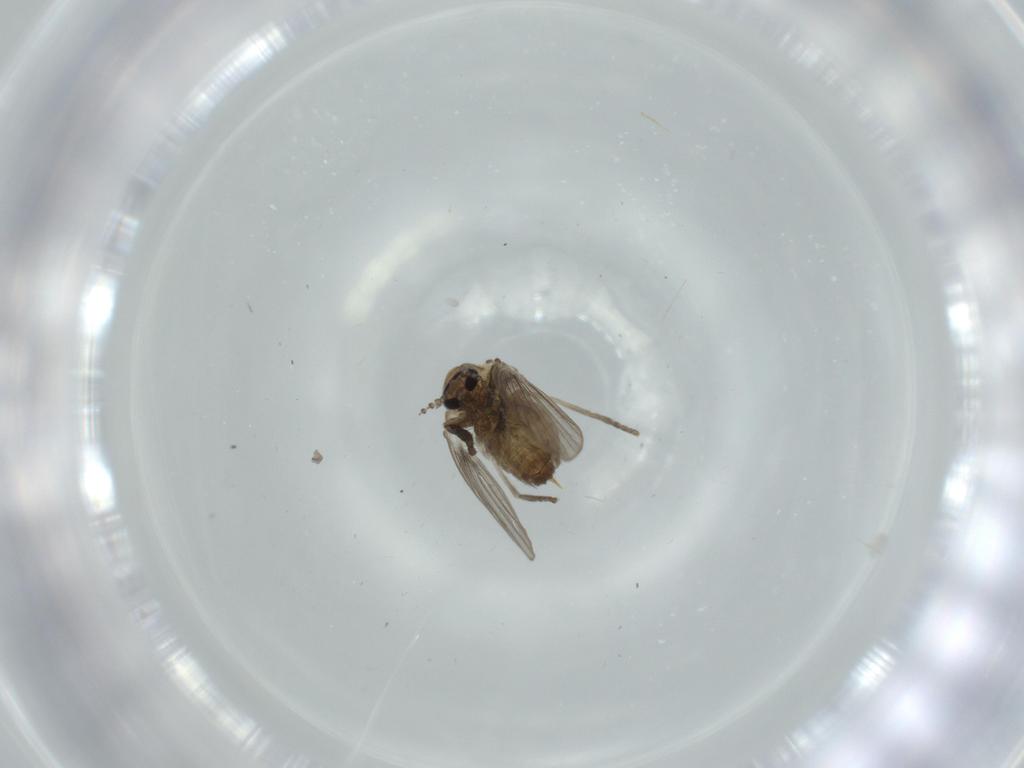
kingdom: Animalia
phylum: Arthropoda
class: Insecta
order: Diptera
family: Psychodidae
